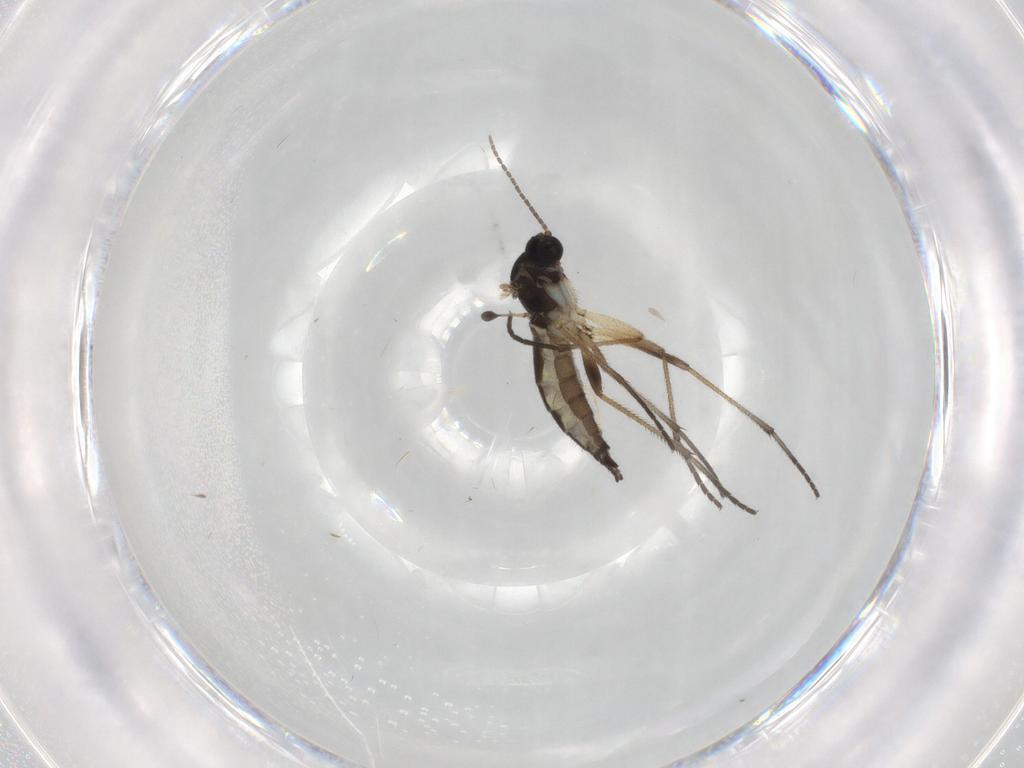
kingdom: Animalia
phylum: Arthropoda
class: Insecta
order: Diptera
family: Sciaridae
